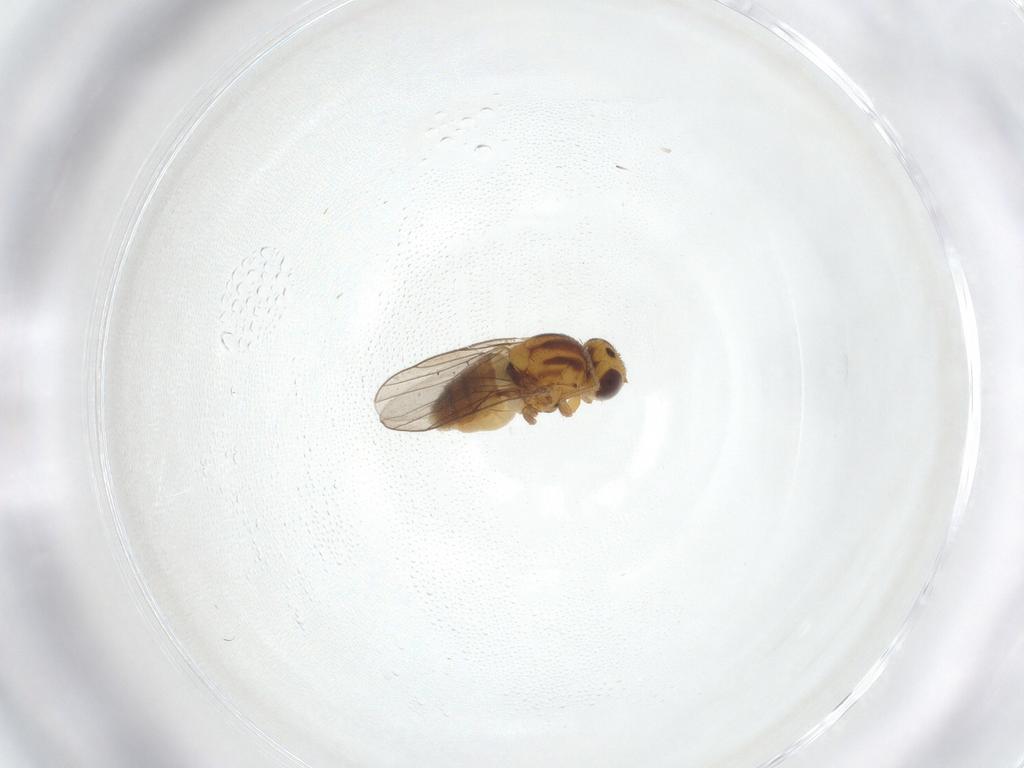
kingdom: Animalia
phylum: Arthropoda
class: Insecta
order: Diptera
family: Chloropidae
